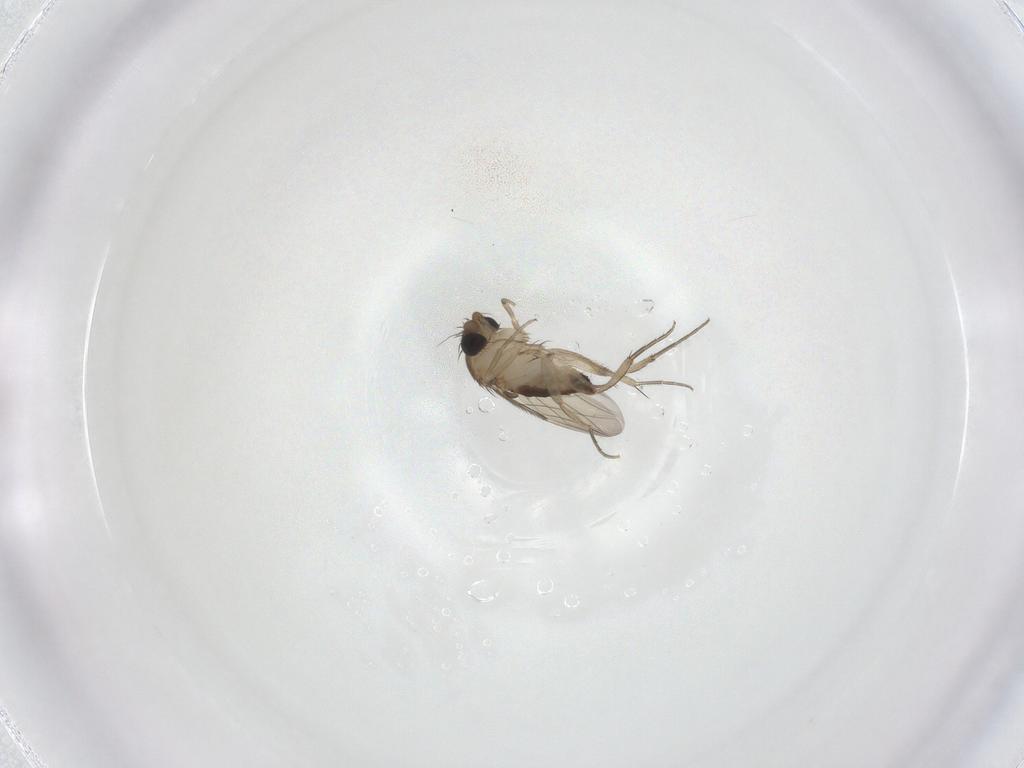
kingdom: Animalia
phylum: Arthropoda
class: Insecta
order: Diptera
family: Phoridae
